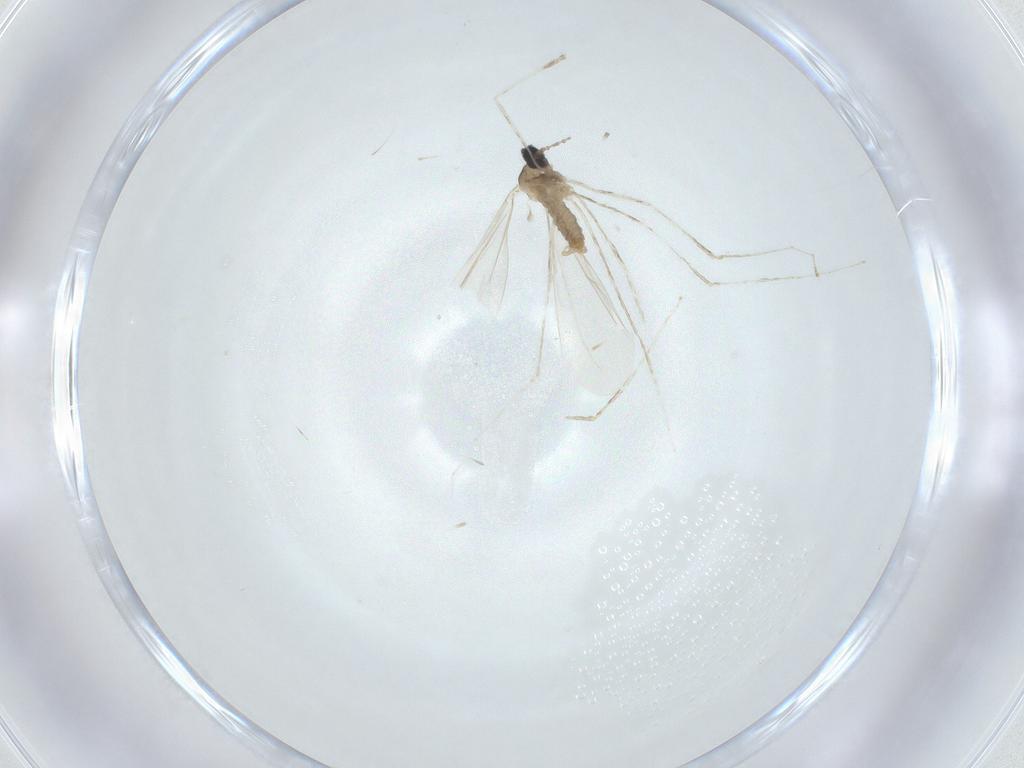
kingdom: Animalia
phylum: Arthropoda
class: Insecta
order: Diptera
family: Cecidomyiidae
